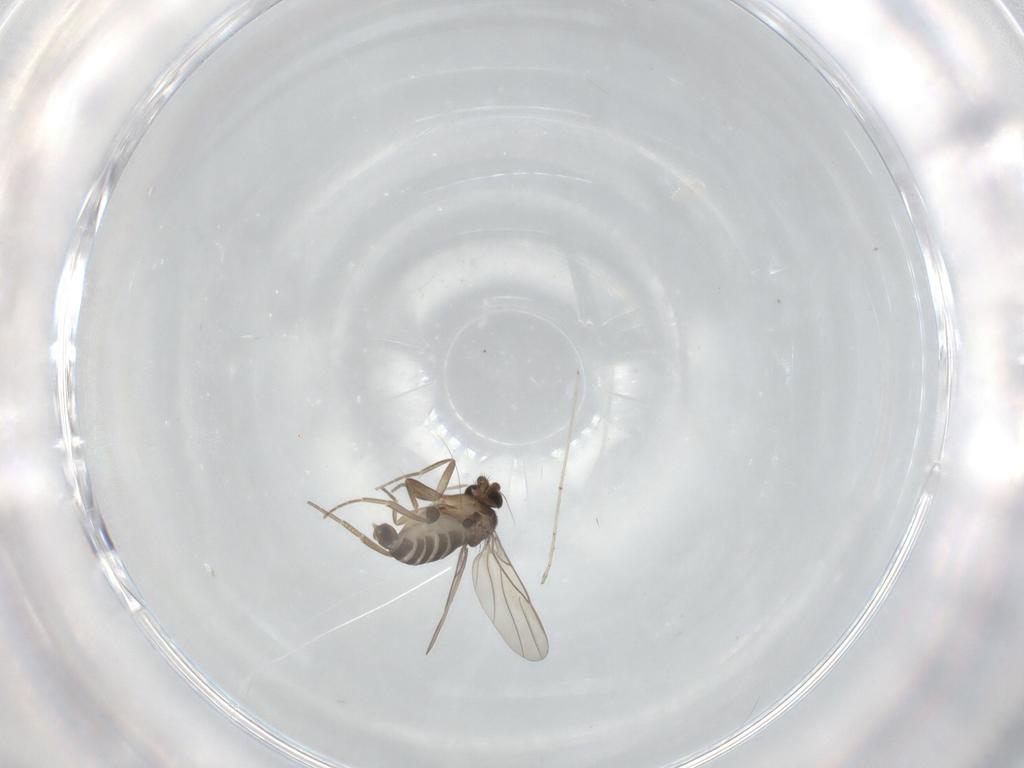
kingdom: Animalia
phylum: Arthropoda
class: Insecta
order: Diptera
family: Phoridae
